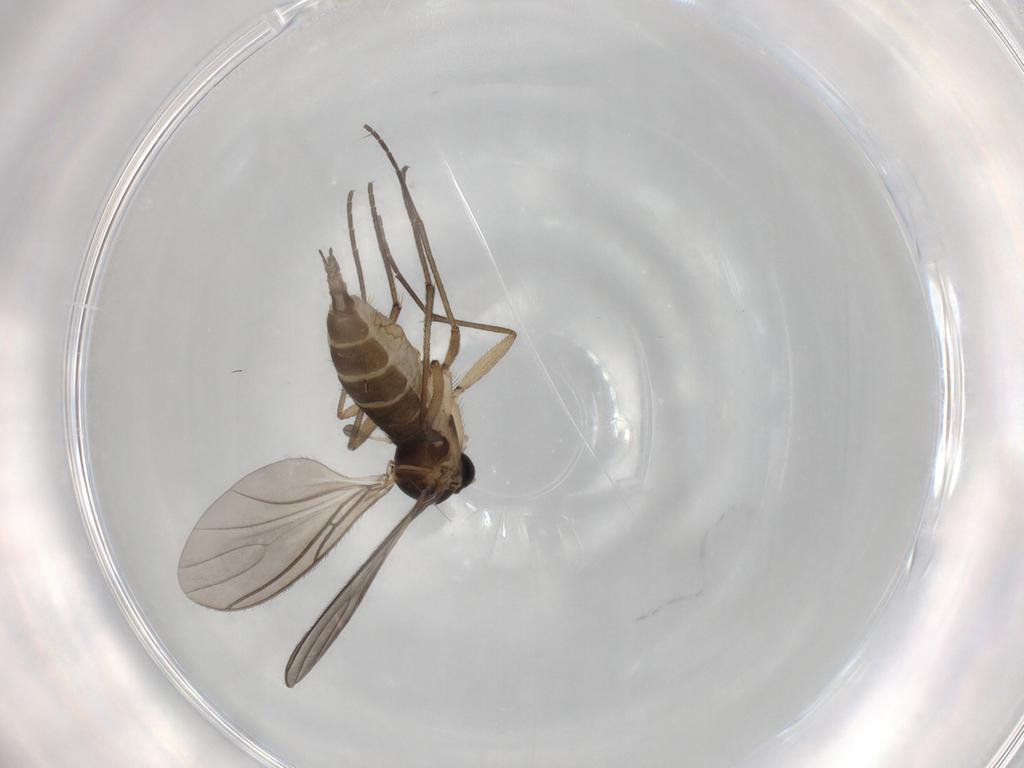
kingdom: Animalia
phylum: Arthropoda
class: Insecta
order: Diptera
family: Sciaridae
